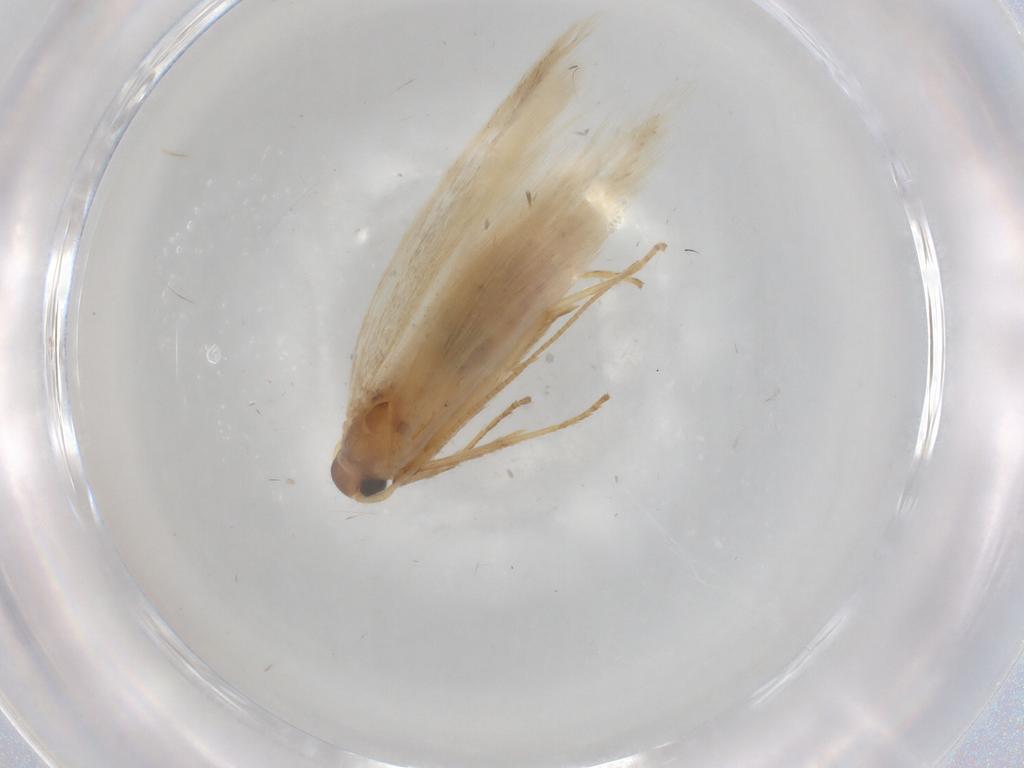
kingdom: Animalia
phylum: Arthropoda
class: Insecta
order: Lepidoptera
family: Gelechiidae
